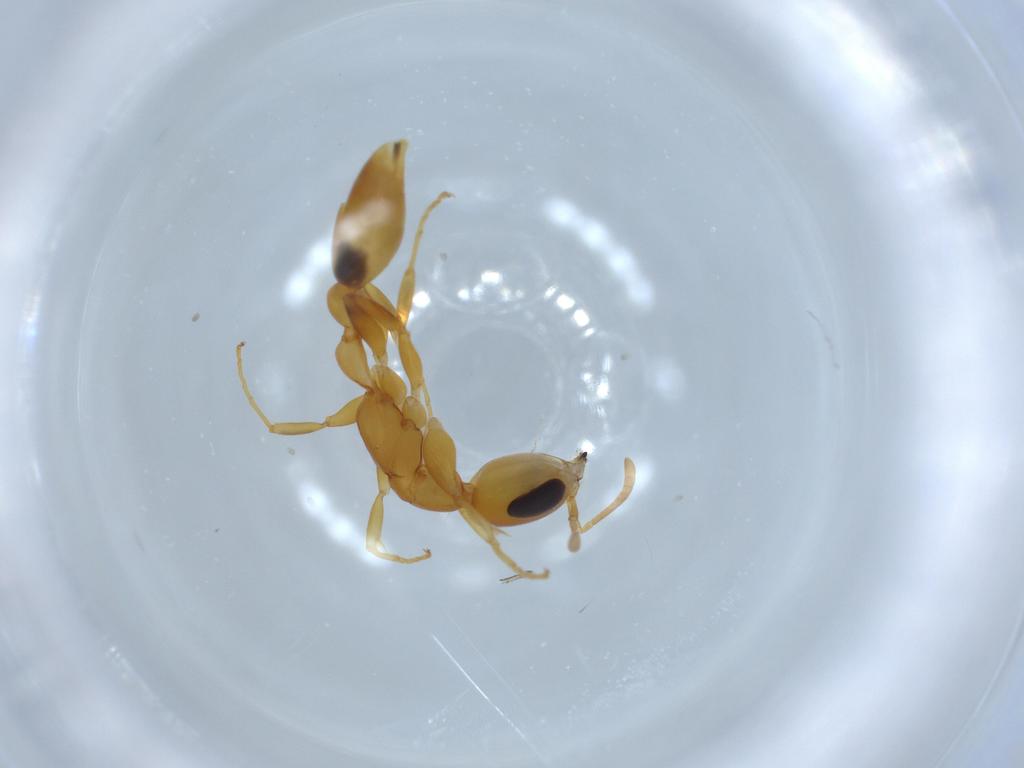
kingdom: Animalia
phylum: Arthropoda
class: Insecta
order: Hymenoptera
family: Formicidae
